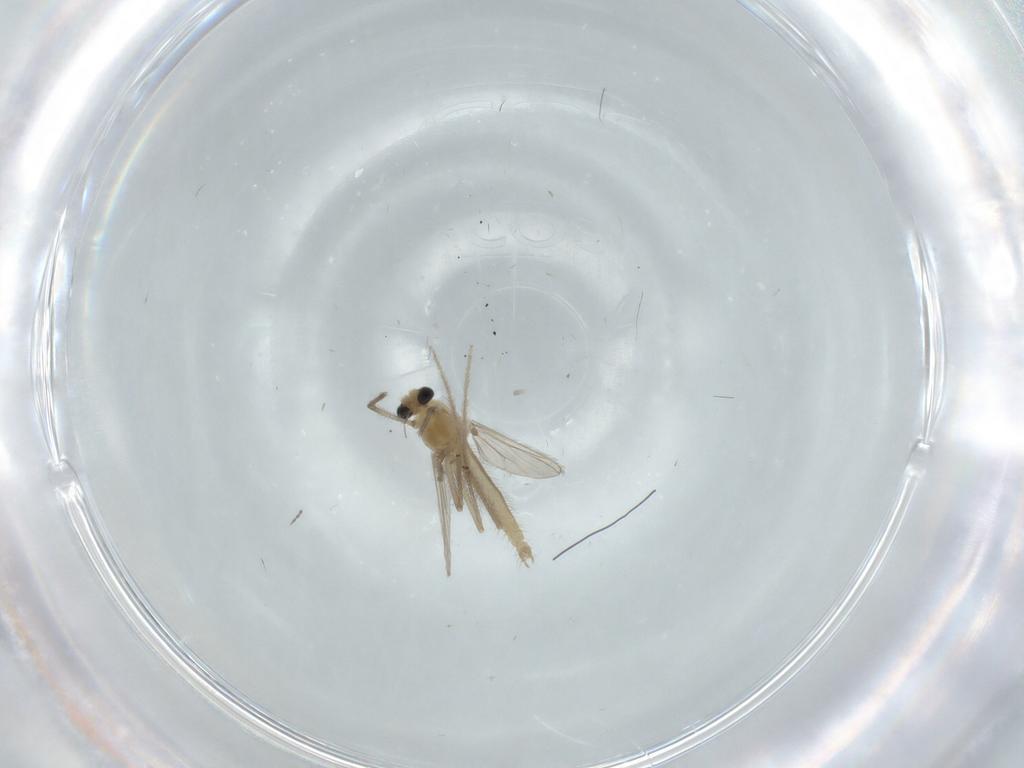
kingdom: Animalia
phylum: Arthropoda
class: Insecta
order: Diptera
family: Chironomidae
